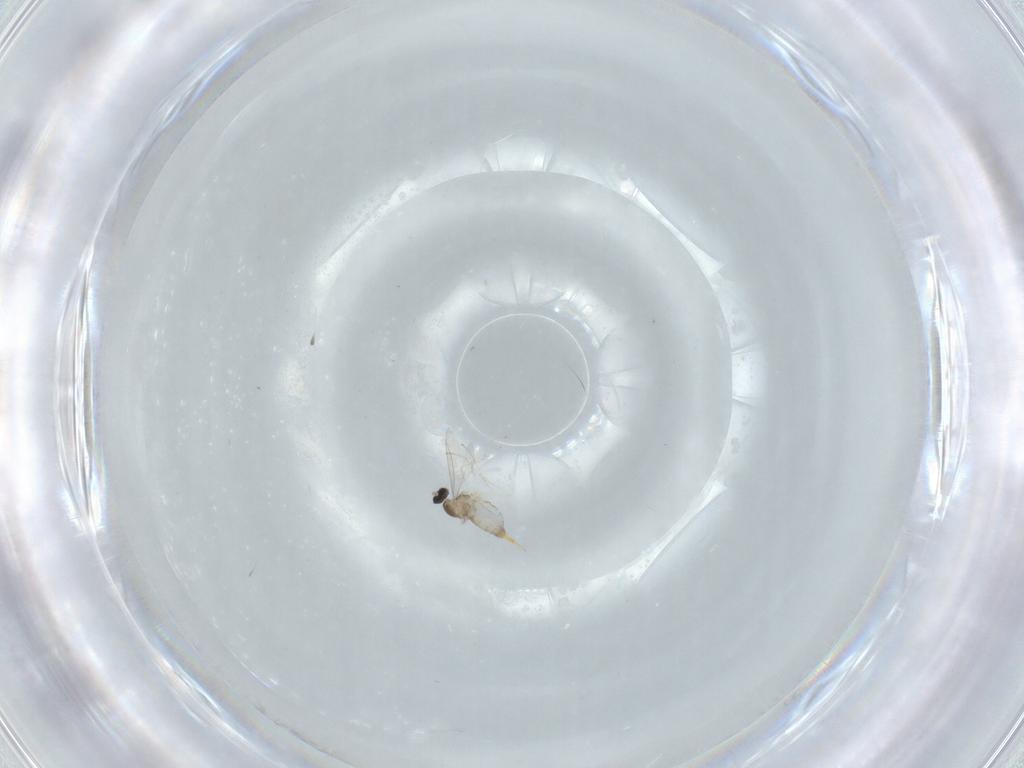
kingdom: Animalia
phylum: Arthropoda
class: Insecta
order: Diptera
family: Cecidomyiidae
